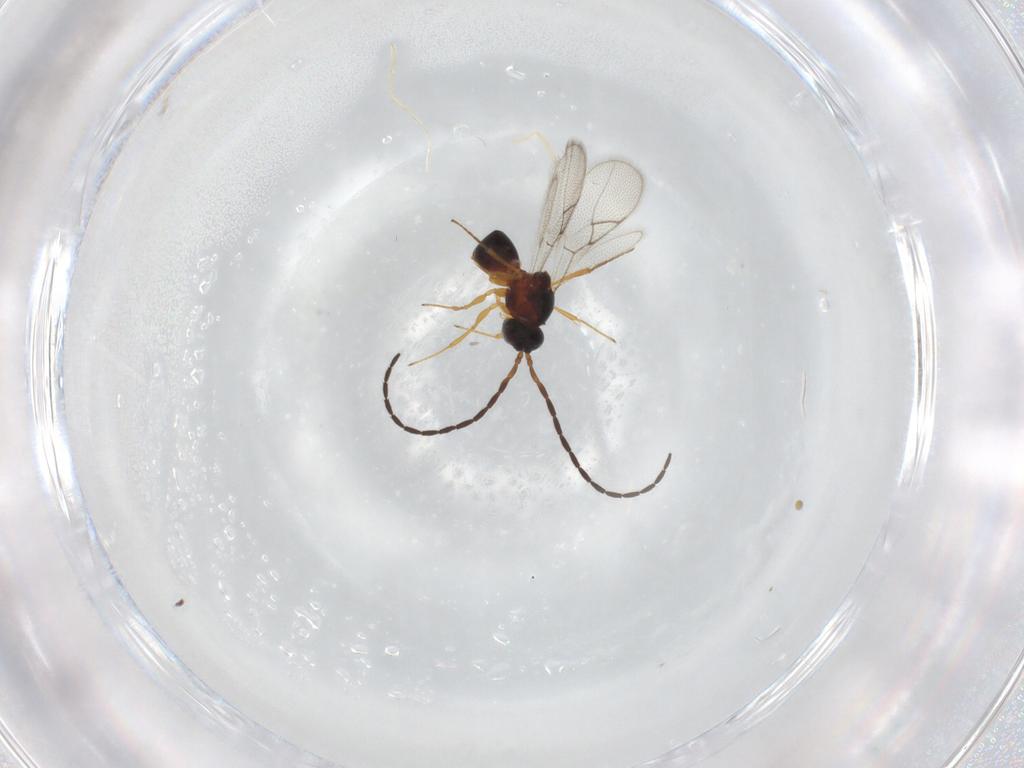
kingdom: Animalia
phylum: Arthropoda
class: Insecta
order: Hymenoptera
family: Figitidae
